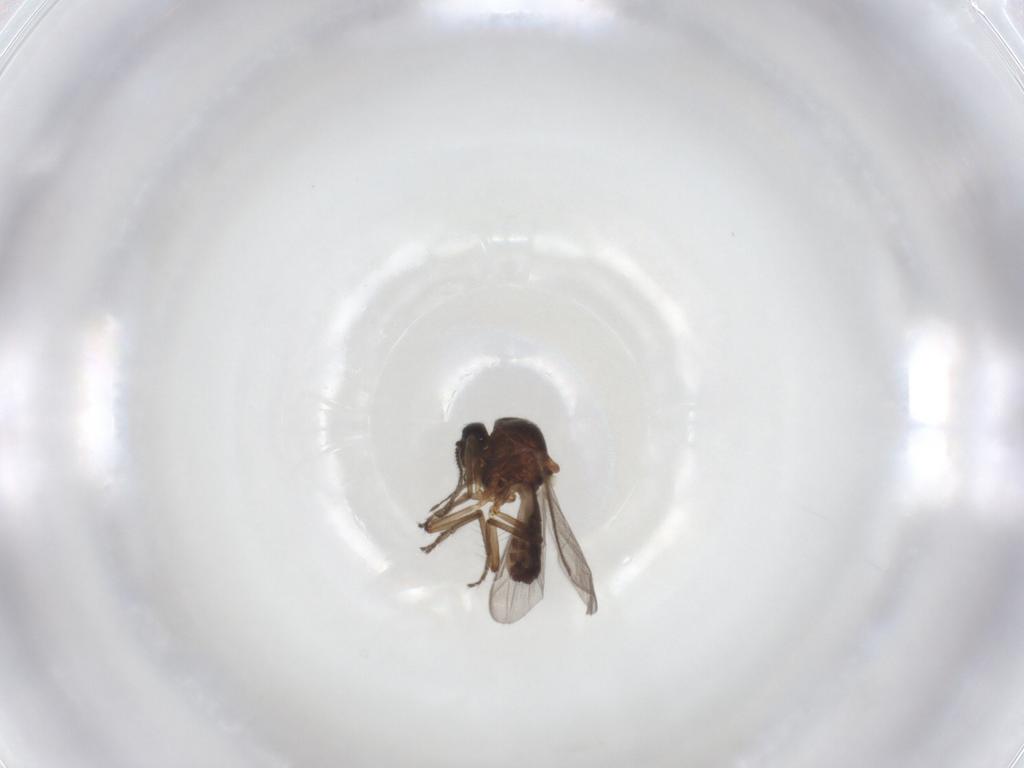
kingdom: Animalia
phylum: Arthropoda
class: Insecta
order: Diptera
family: Ceratopogonidae
